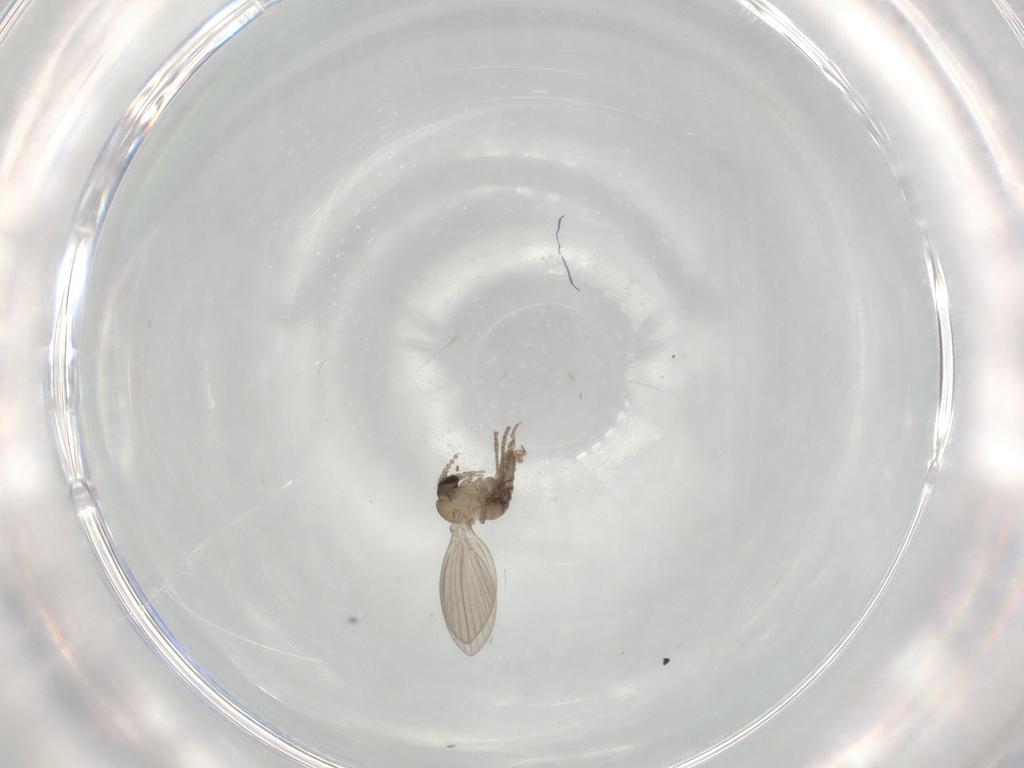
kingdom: Animalia
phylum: Arthropoda
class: Insecta
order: Diptera
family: Psychodidae
